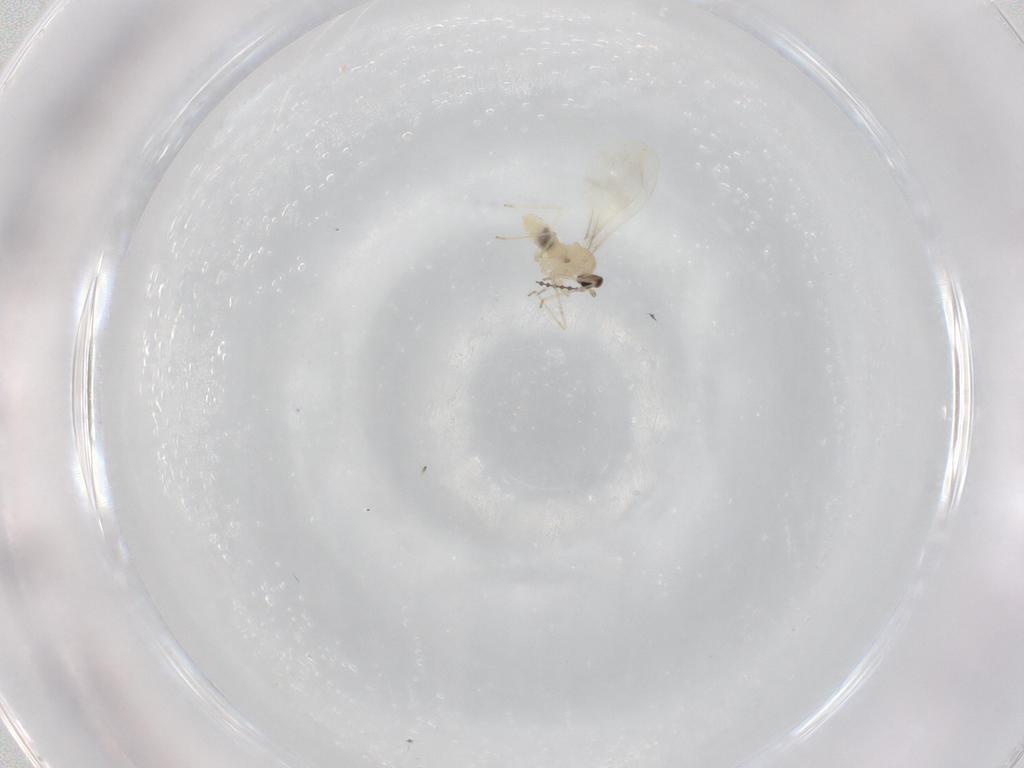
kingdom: Animalia
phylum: Arthropoda
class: Insecta
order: Diptera
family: Cecidomyiidae
